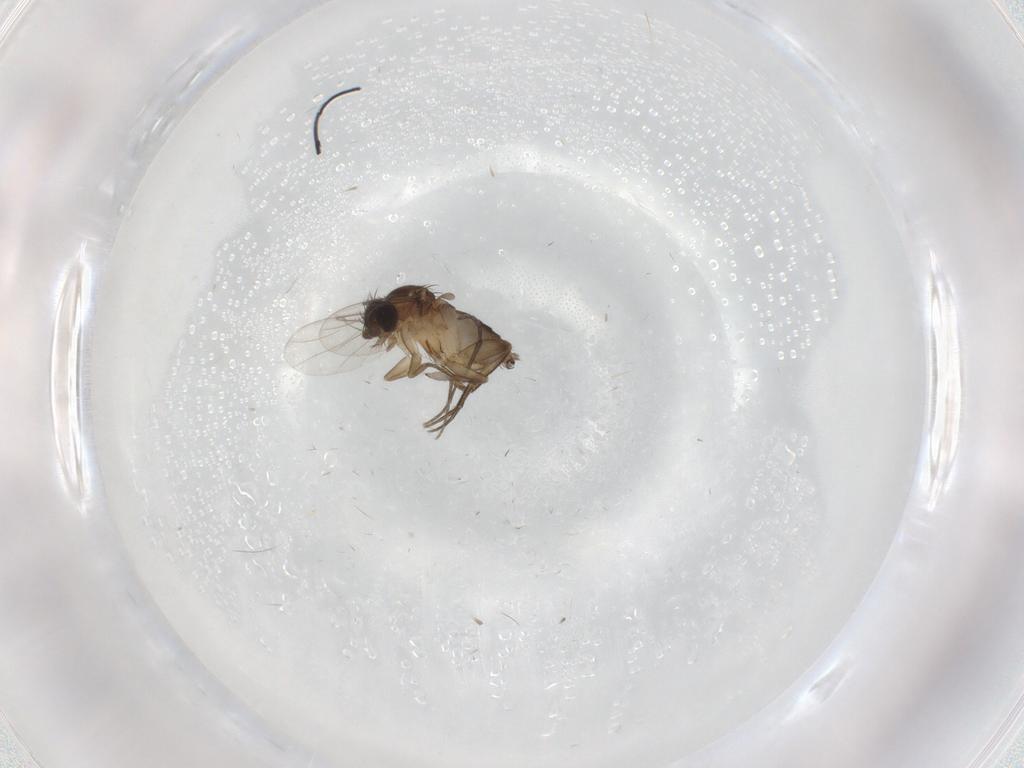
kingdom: Animalia
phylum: Arthropoda
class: Insecta
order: Diptera
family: Phoridae
